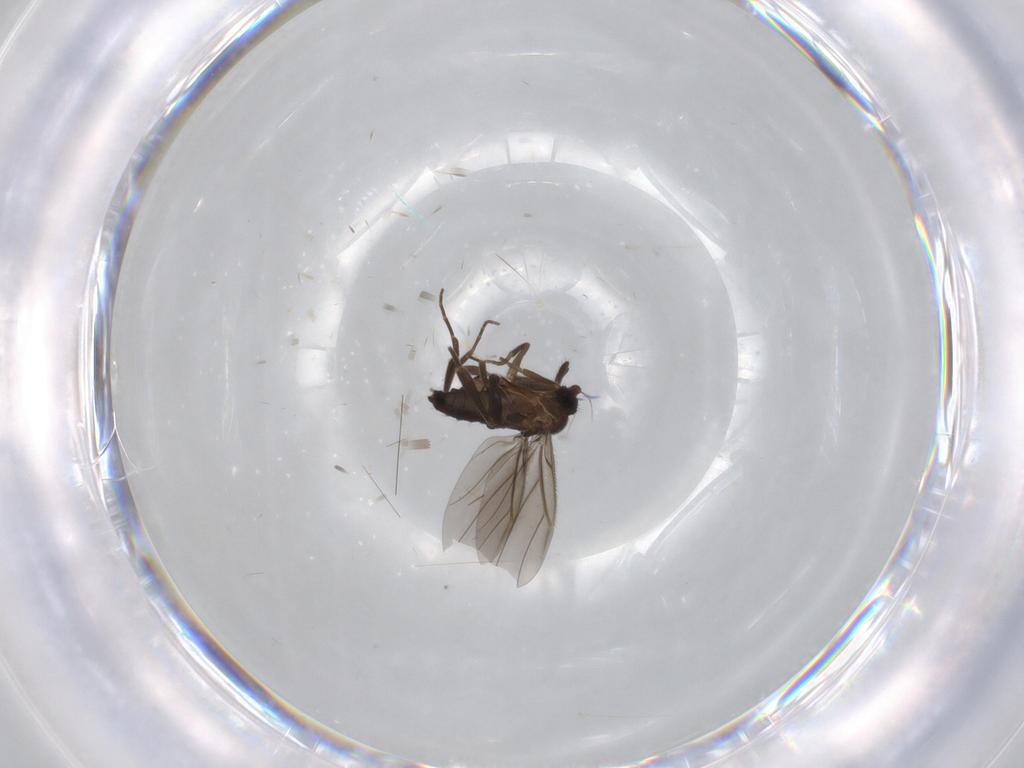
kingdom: Animalia
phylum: Arthropoda
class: Insecta
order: Diptera
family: Ceratopogonidae
